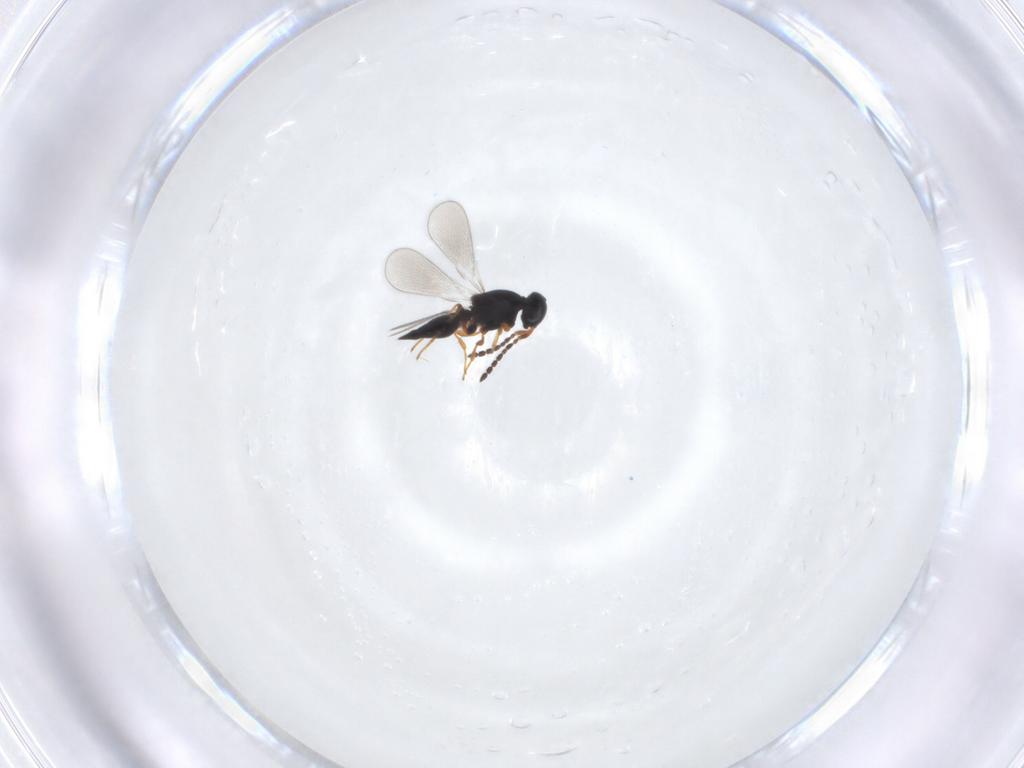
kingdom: Animalia
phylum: Arthropoda
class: Insecta
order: Hymenoptera
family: Platygastridae
